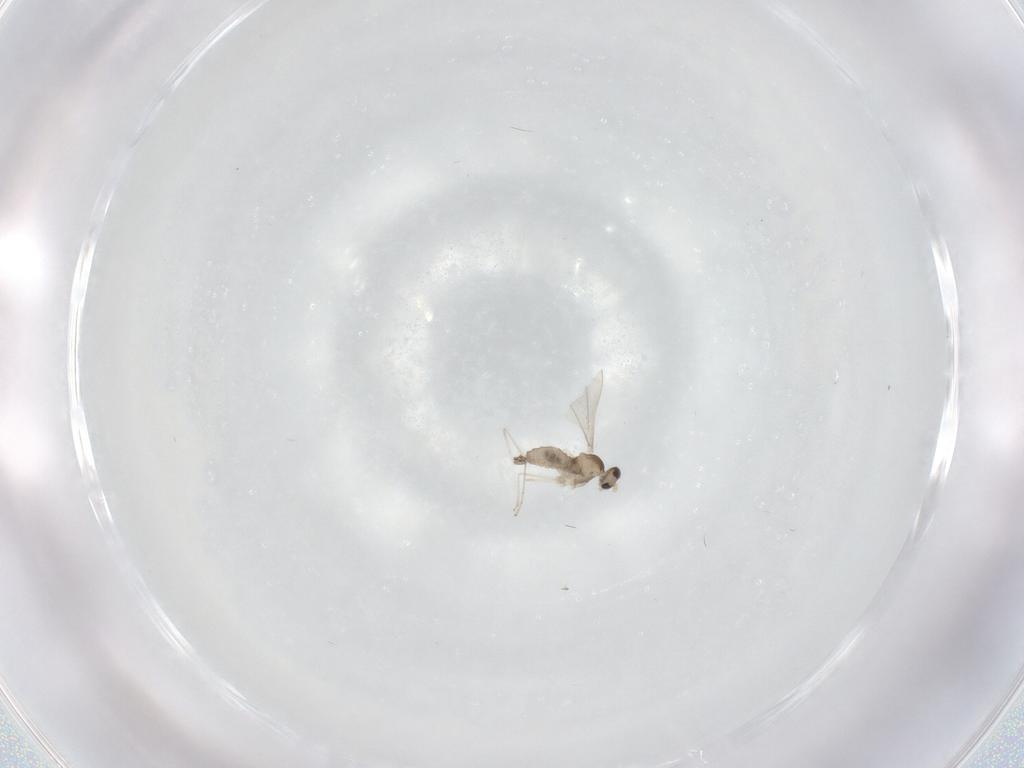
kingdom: Animalia
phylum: Arthropoda
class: Insecta
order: Diptera
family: Cecidomyiidae
